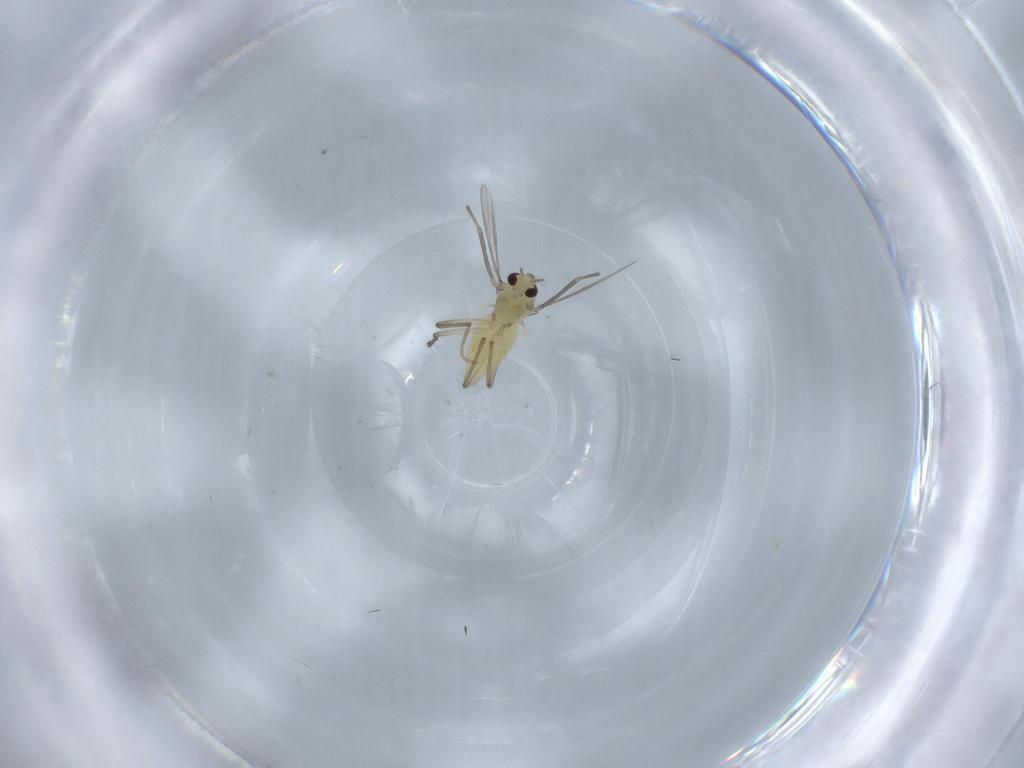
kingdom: Animalia
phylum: Arthropoda
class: Insecta
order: Diptera
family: Chironomidae
